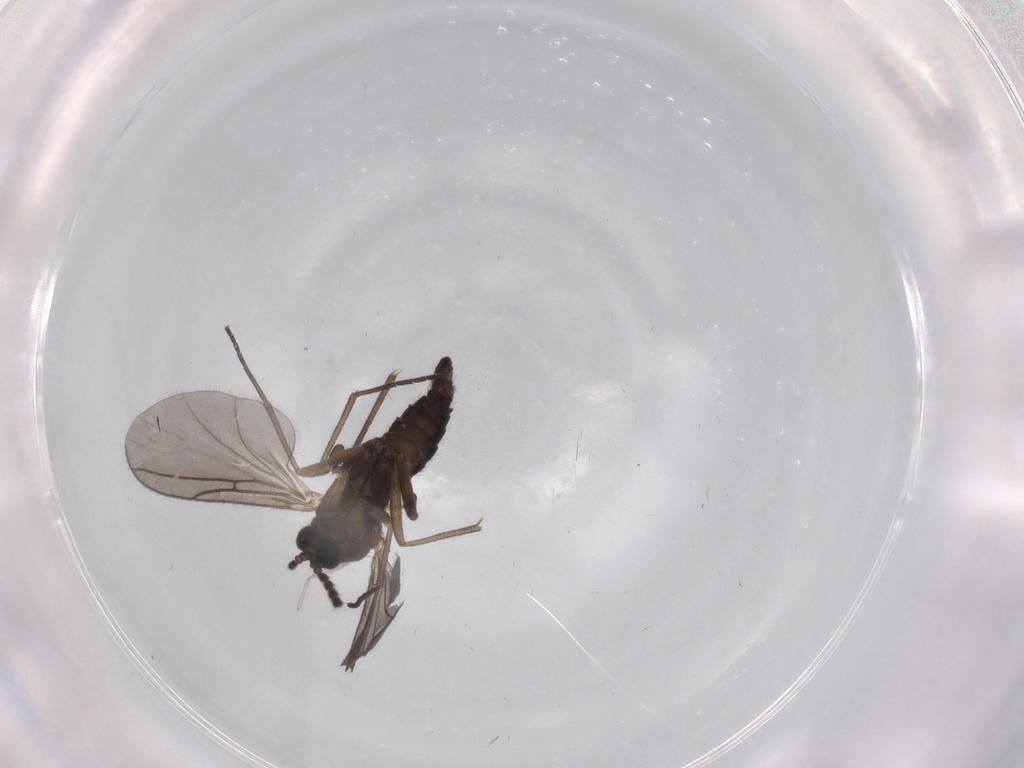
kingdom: Animalia
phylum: Arthropoda
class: Insecta
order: Diptera
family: Sciaridae
